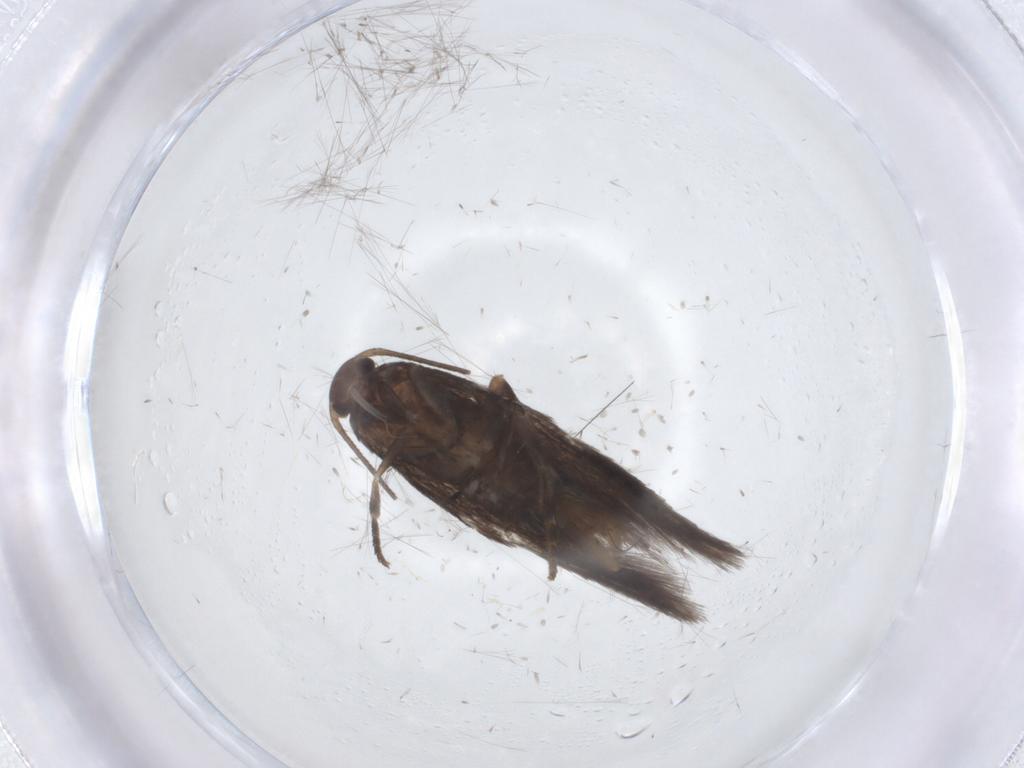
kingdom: Animalia
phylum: Arthropoda
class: Insecta
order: Lepidoptera
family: Elachistidae
